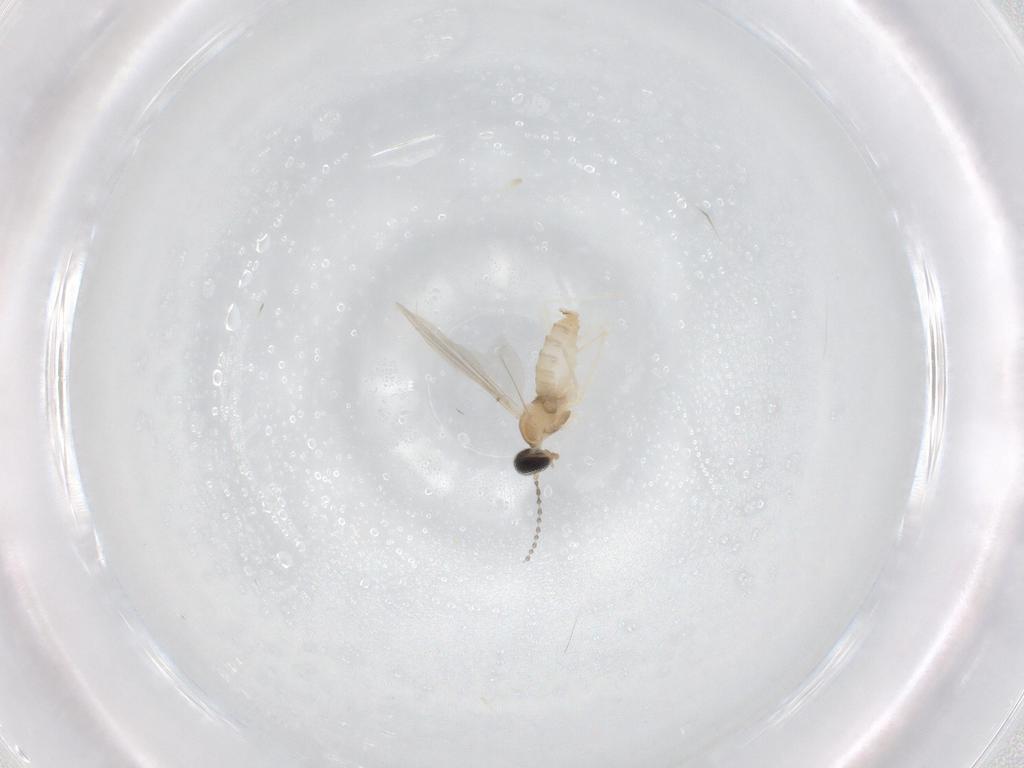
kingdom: Animalia
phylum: Arthropoda
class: Insecta
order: Diptera
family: Cecidomyiidae
